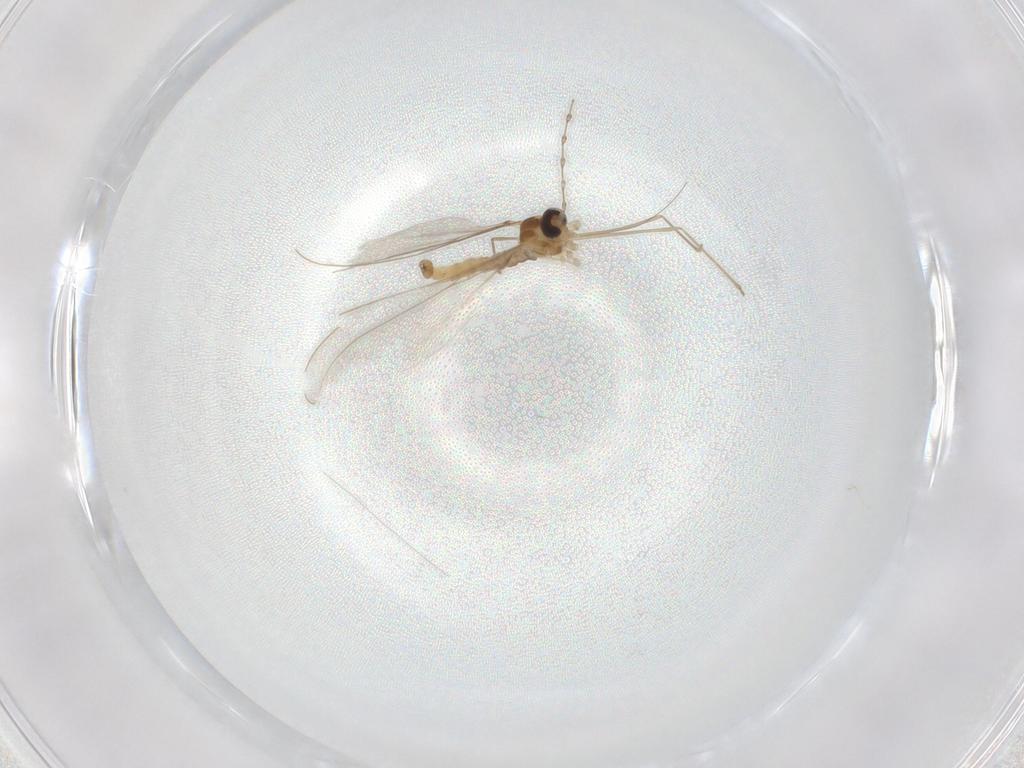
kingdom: Animalia
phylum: Arthropoda
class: Insecta
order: Diptera
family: Cecidomyiidae
